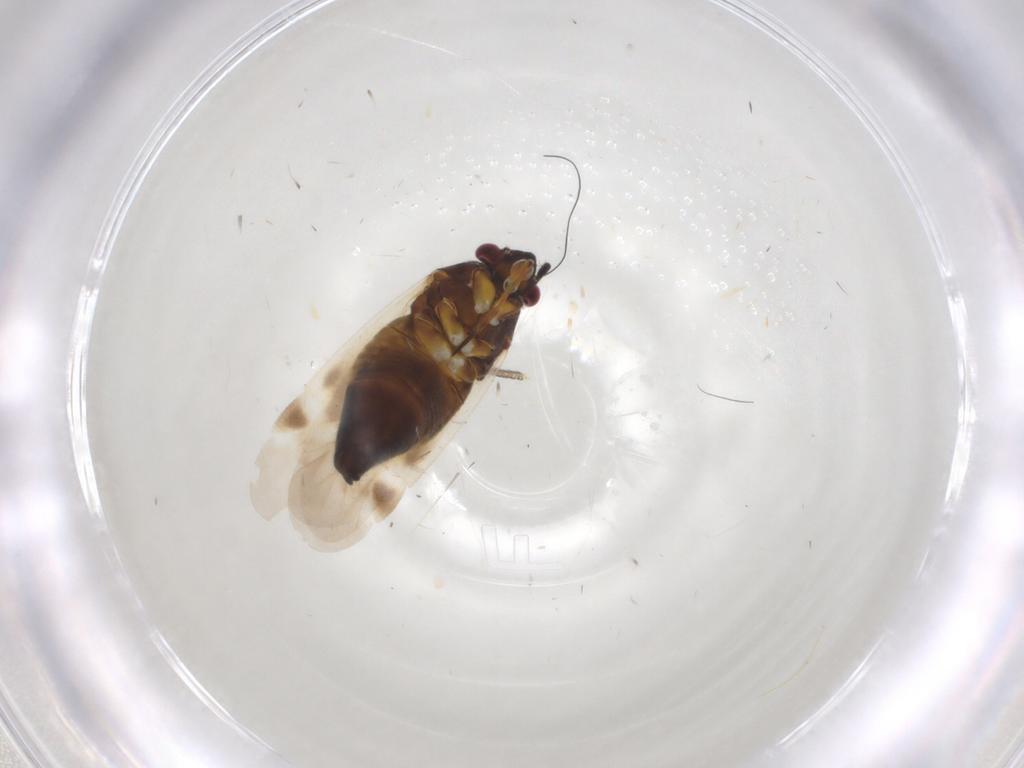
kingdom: Animalia
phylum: Arthropoda
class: Insecta
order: Hemiptera
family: Miridae
